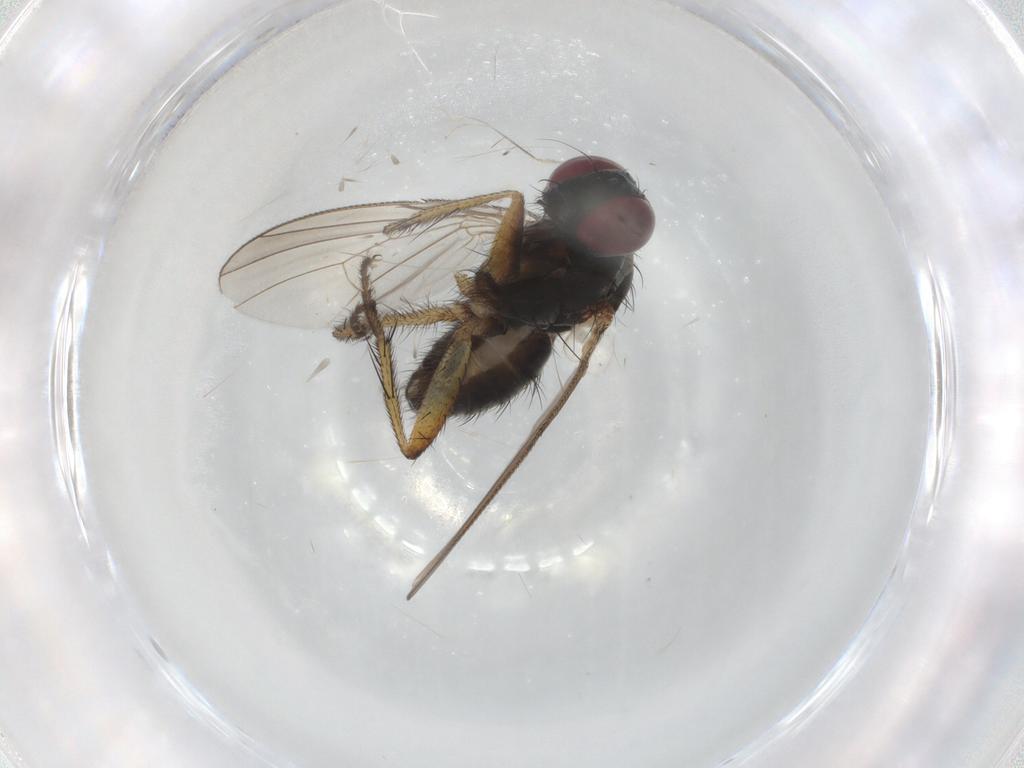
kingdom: Animalia
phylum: Arthropoda
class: Insecta
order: Diptera
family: Muscidae
